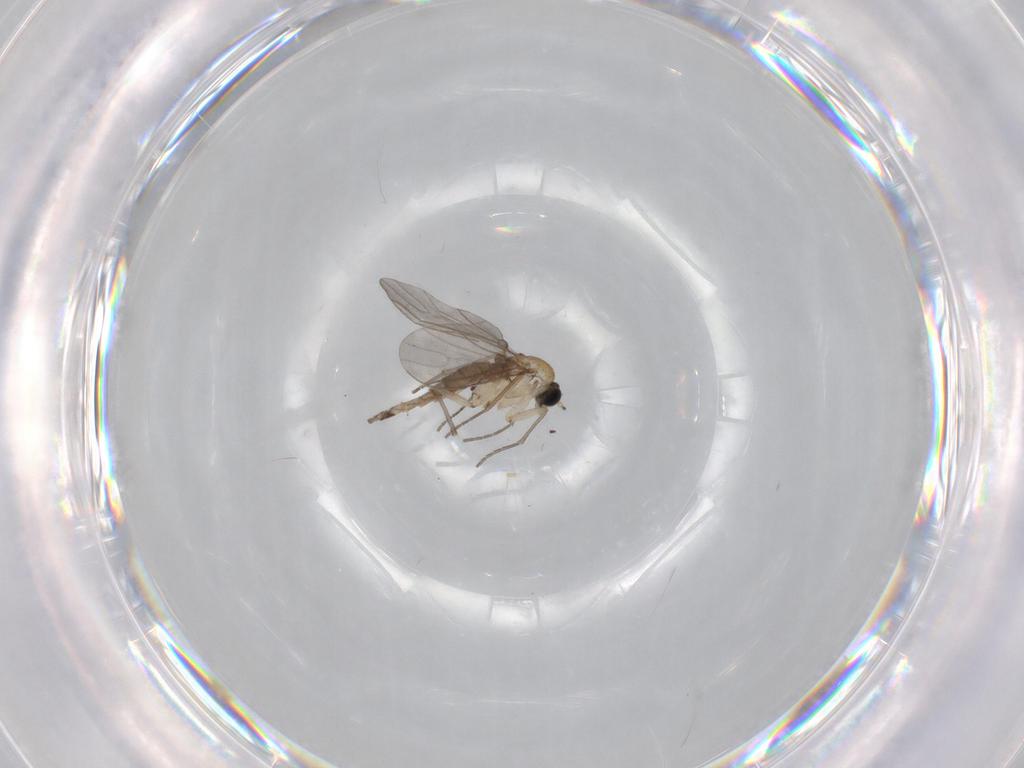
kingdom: Animalia
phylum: Arthropoda
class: Insecta
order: Diptera
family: Sciaridae
